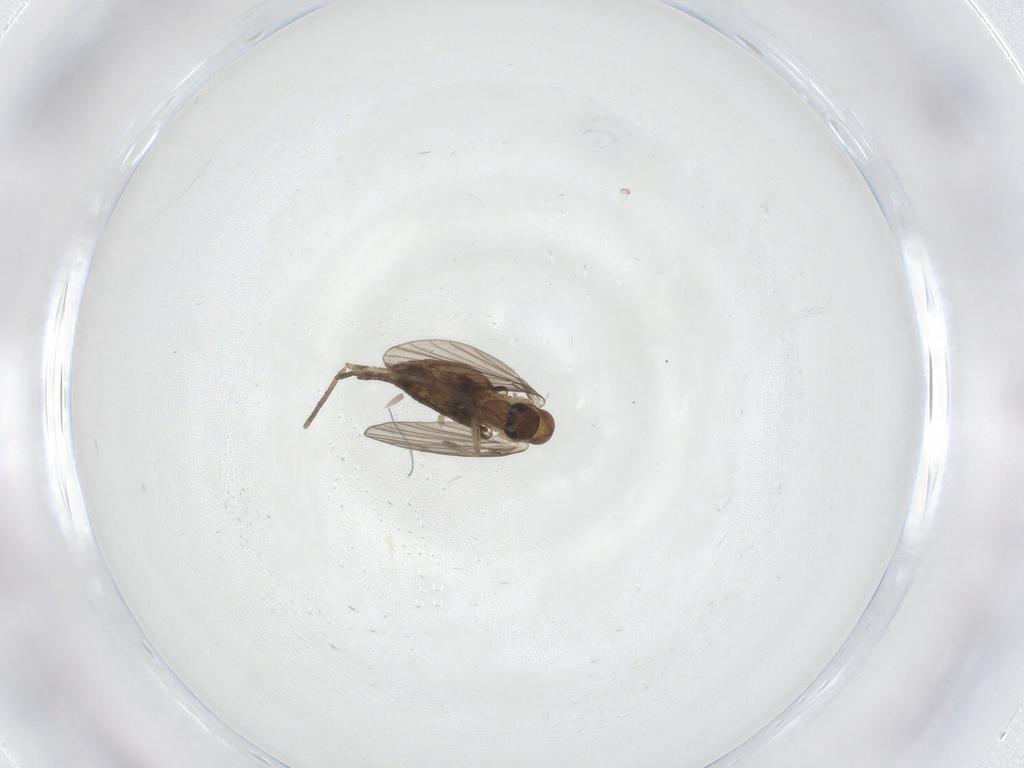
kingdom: Animalia
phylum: Arthropoda
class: Insecta
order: Diptera
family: Psychodidae
